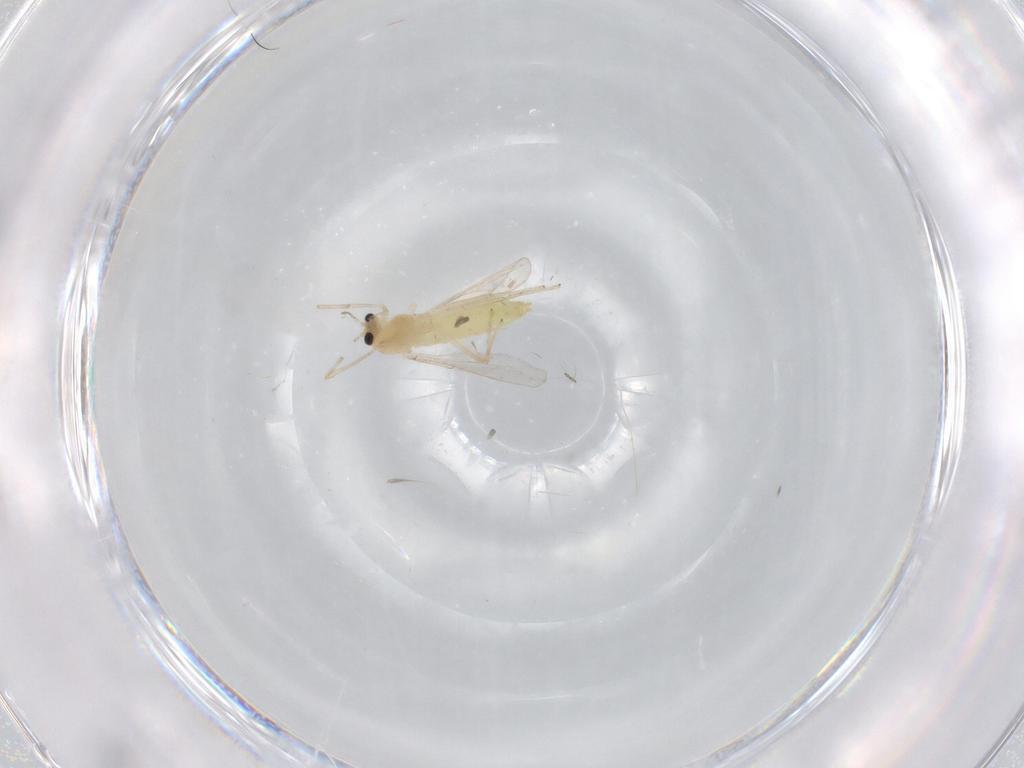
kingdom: Animalia
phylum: Arthropoda
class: Insecta
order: Diptera
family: Chironomidae
